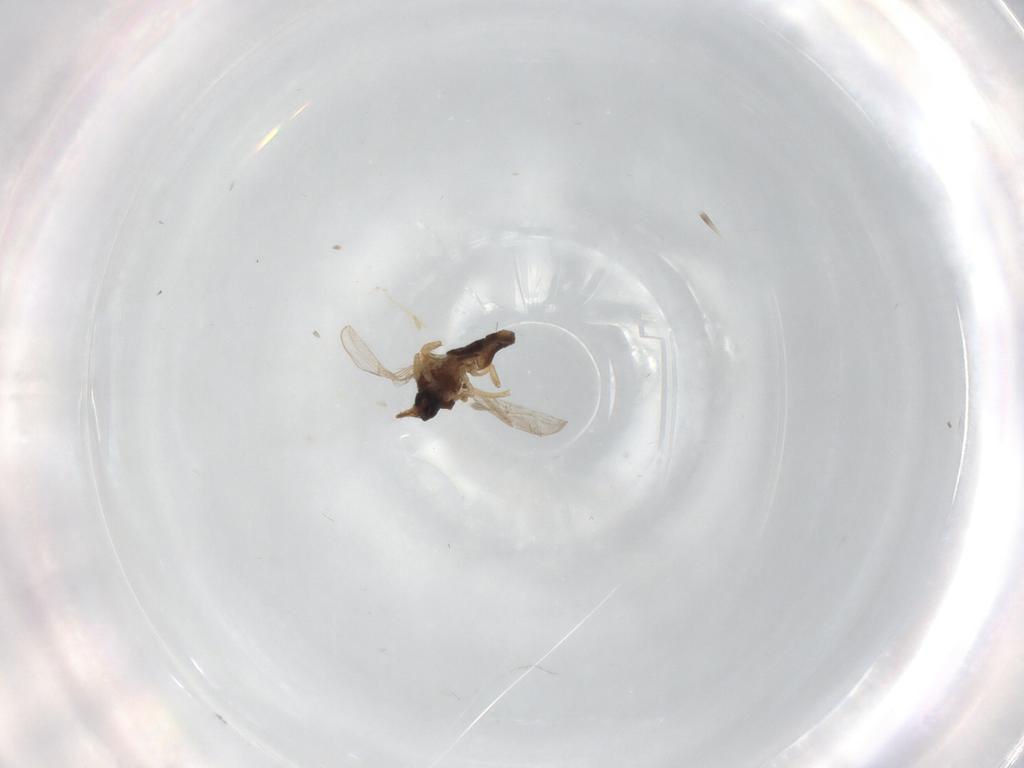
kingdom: Animalia
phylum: Arthropoda
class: Insecta
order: Diptera
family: Ceratopogonidae
